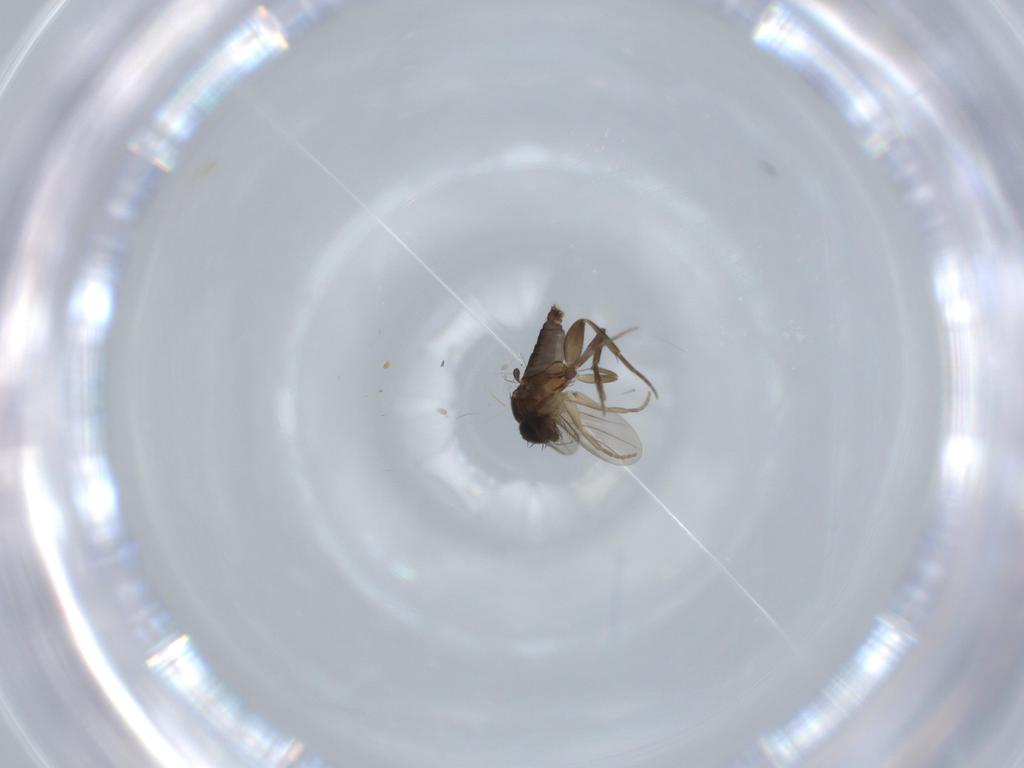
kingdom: Animalia
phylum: Arthropoda
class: Insecta
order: Diptera
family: Phoridae
